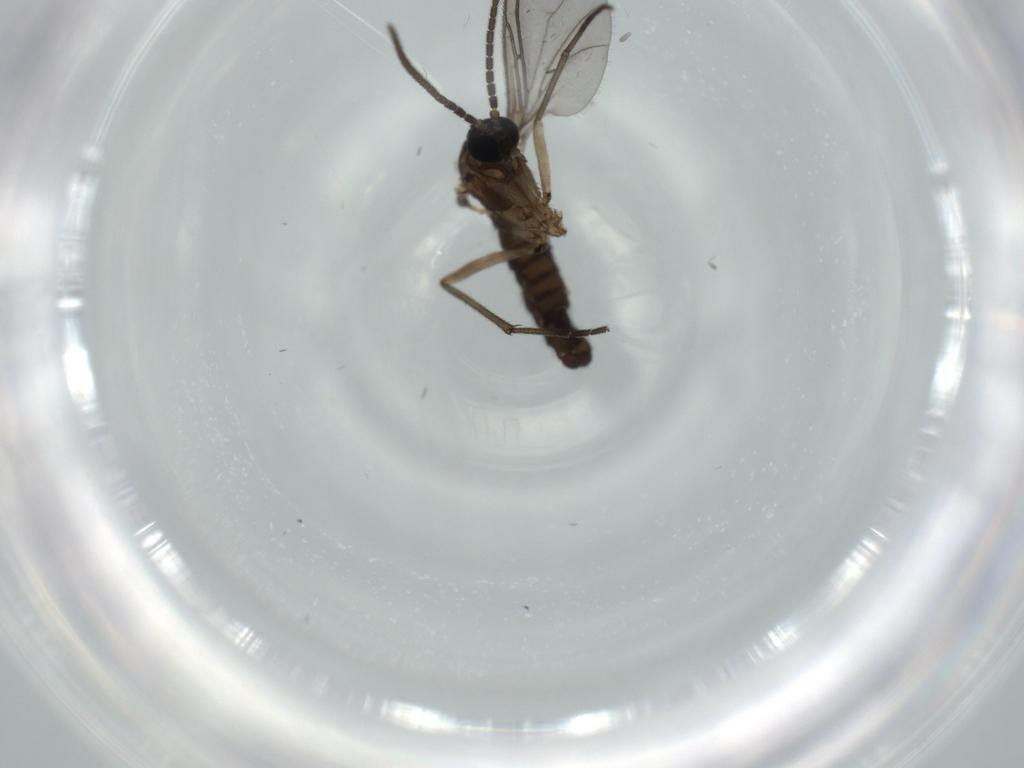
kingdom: Animalia
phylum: Arthropoda
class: Insecta
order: Diptera
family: Sciaridae
